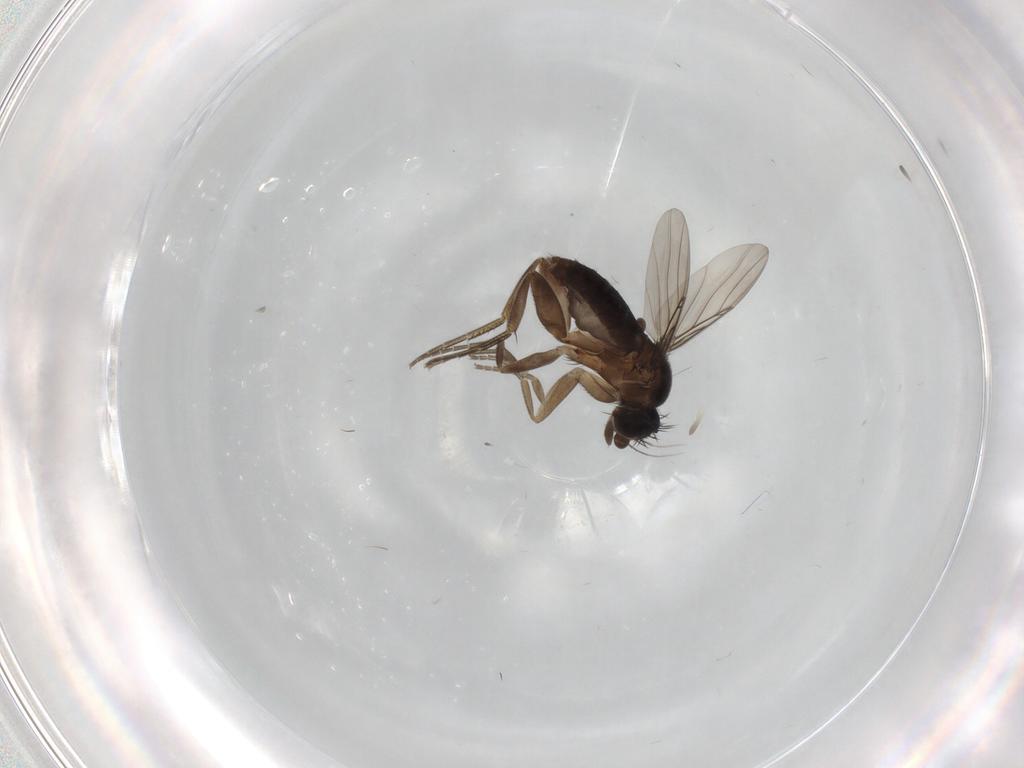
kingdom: Animalia
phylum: Arthropoda
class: Insecta
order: Diptera
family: Phoridae
